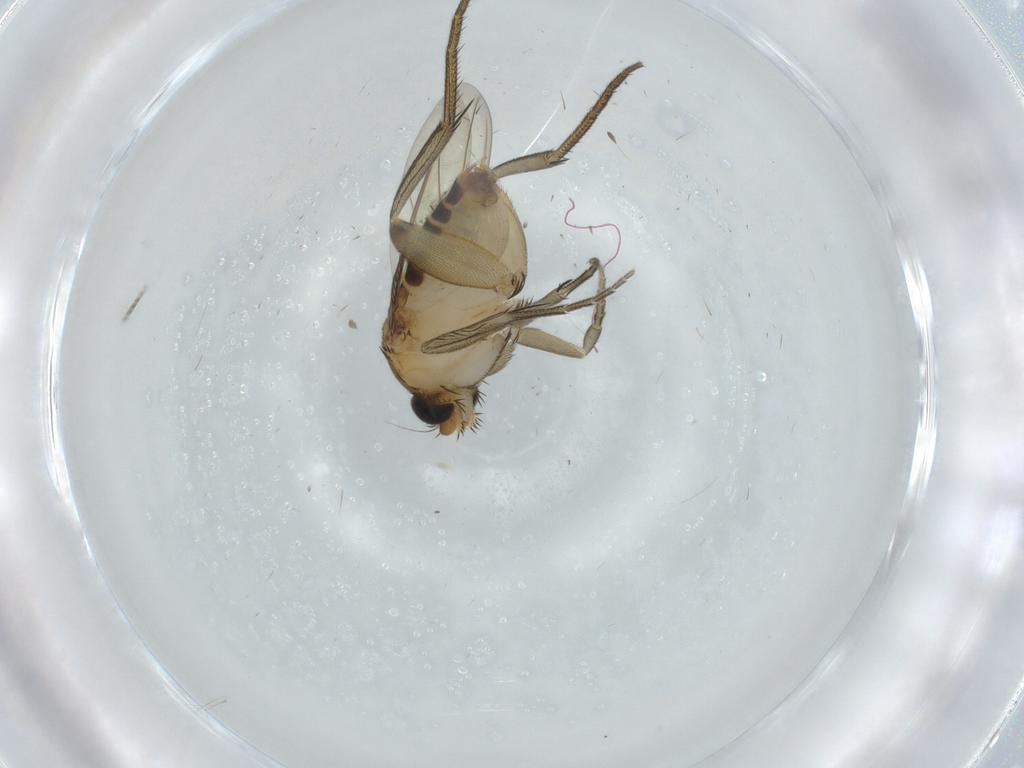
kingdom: Animalia
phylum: Arthropoda
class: Insecta
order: Diptera
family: Phoridae
